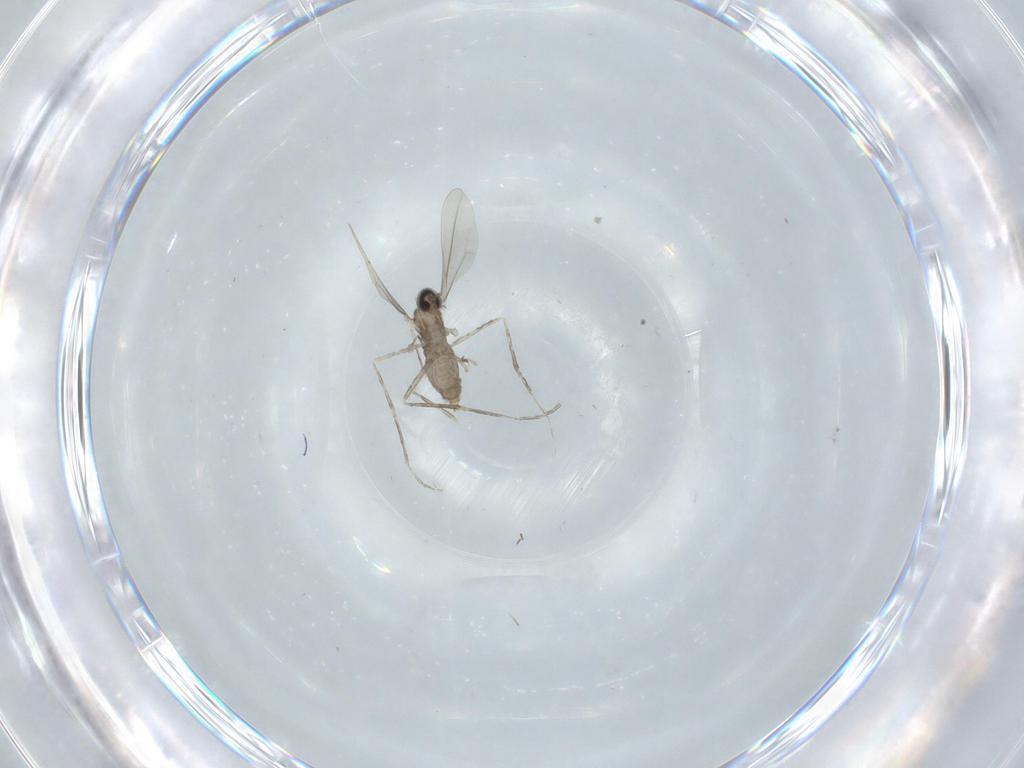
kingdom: Animalia
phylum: Arthropoda
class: Insecta
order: Diptera
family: Cecidomyiidae
